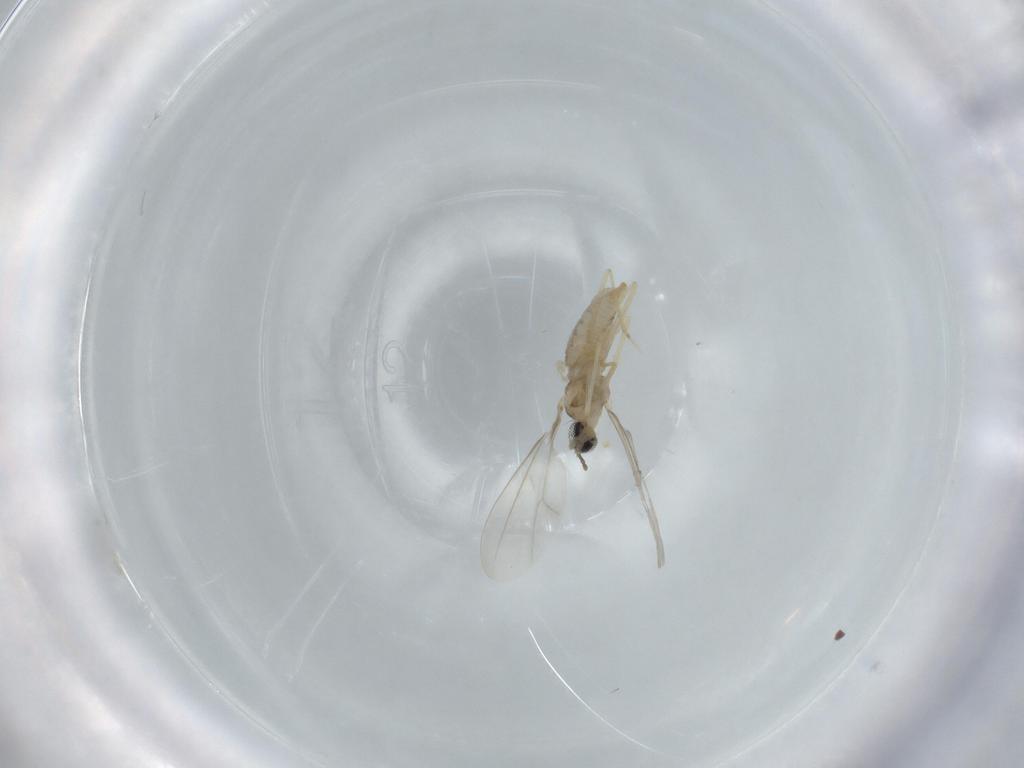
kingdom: Animalia
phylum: Arthropoda
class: Insecta
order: Diptera
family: Cecidomyiidae
